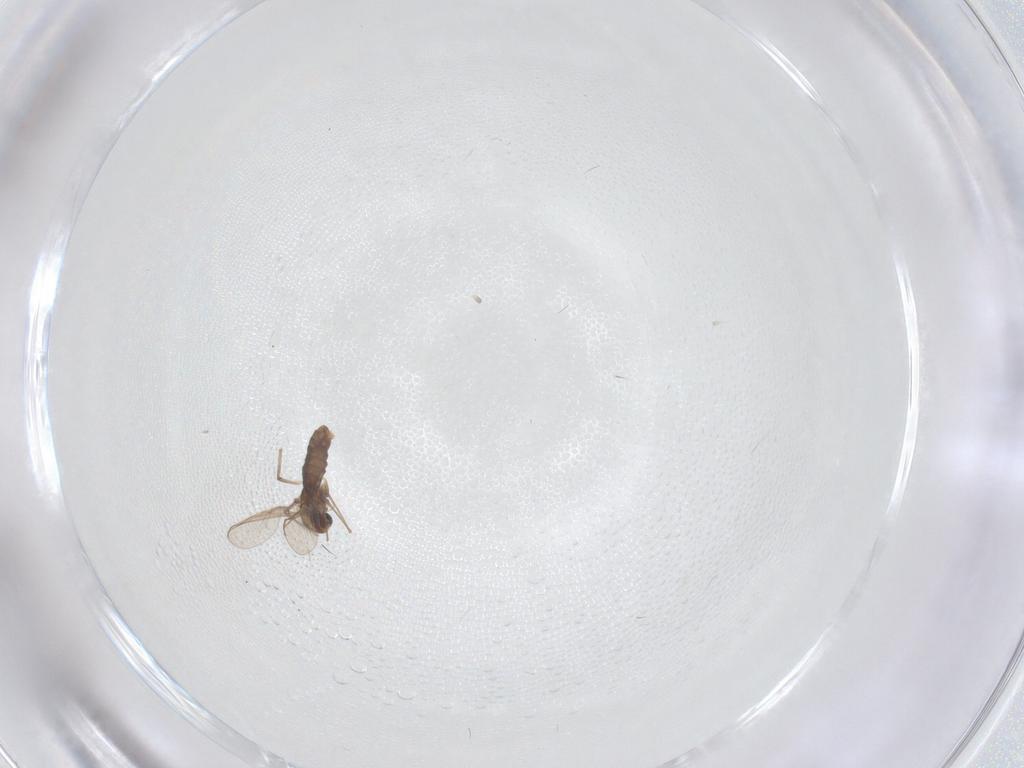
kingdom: Animalia
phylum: Arthropoda
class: Insecta
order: Diptera
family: Chironomidae
